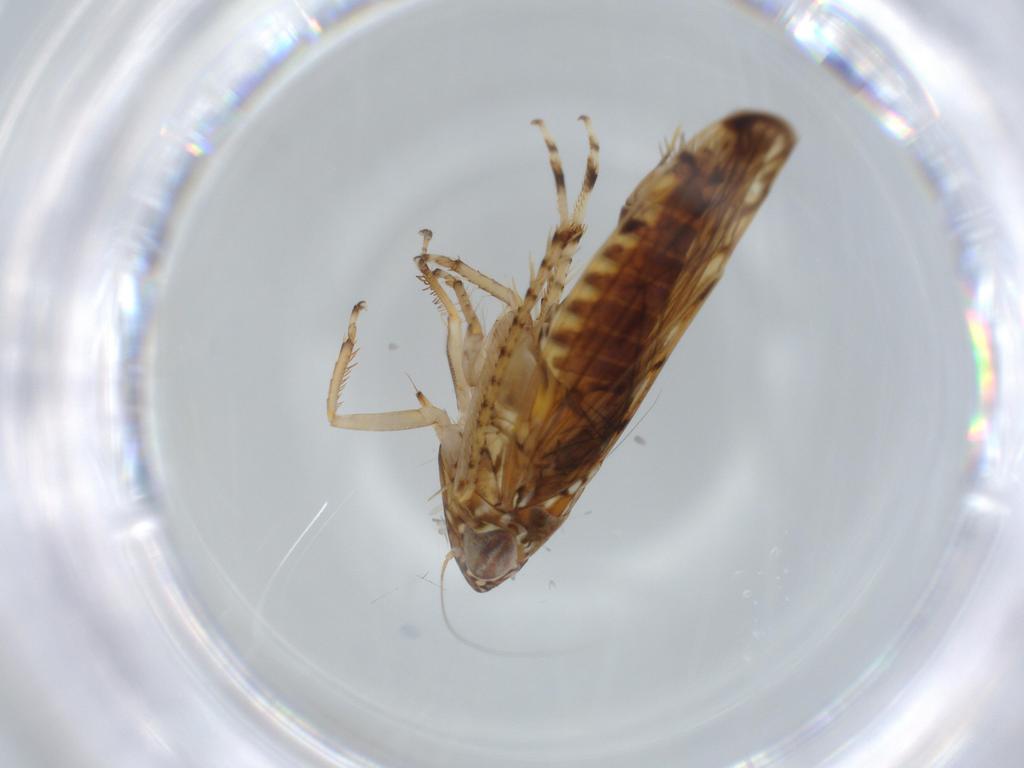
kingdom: Animalia
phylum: Arthropoda
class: Insecta
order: Hemiptera
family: Cicadellidae
